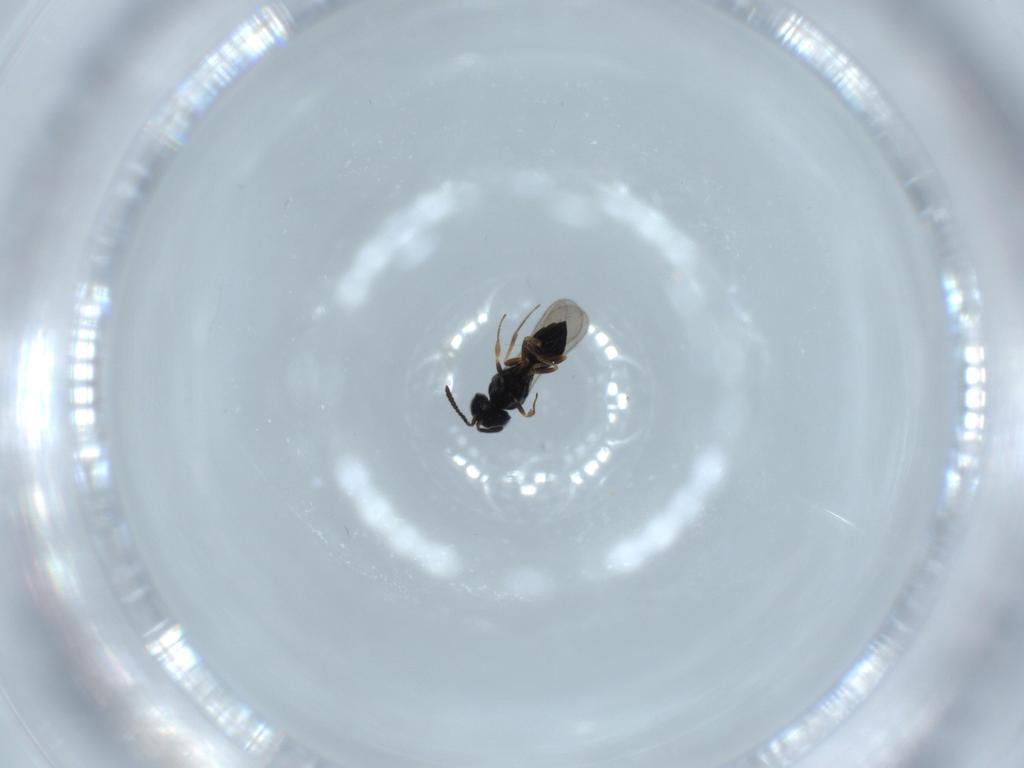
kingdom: Animalia
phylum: Arthropoda
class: Insecta
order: Hymenoptera
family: Scelionidae
